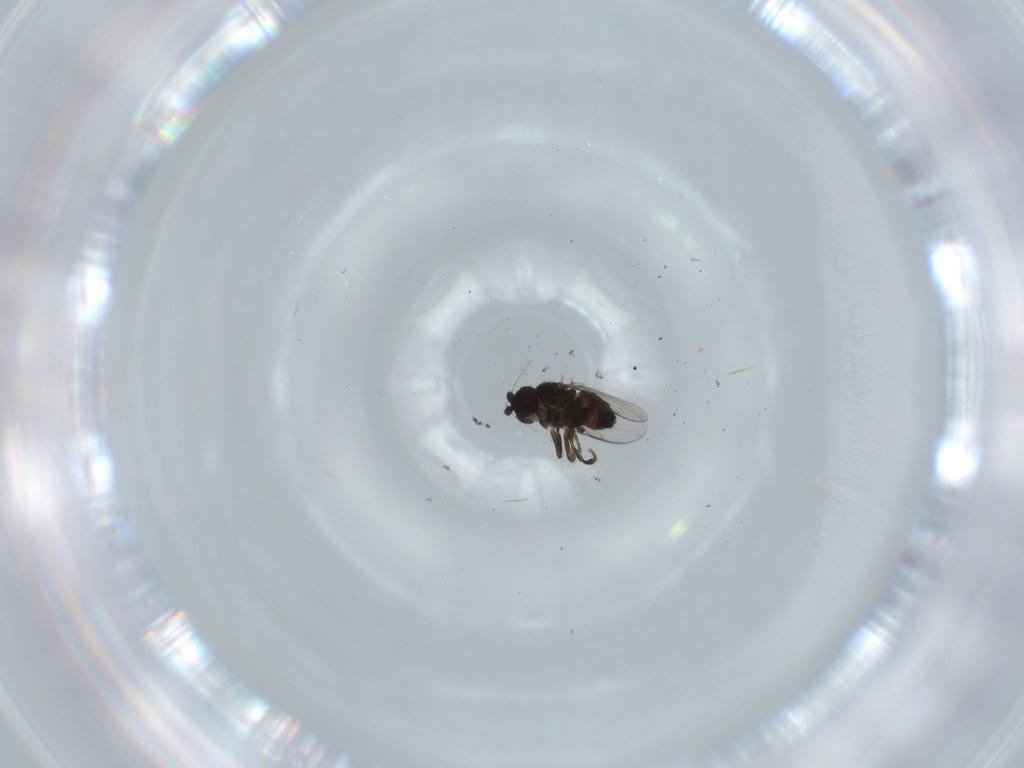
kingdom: Animalia
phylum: Arthropoda
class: Insecta
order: Diptera
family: Sphaeroceridae
